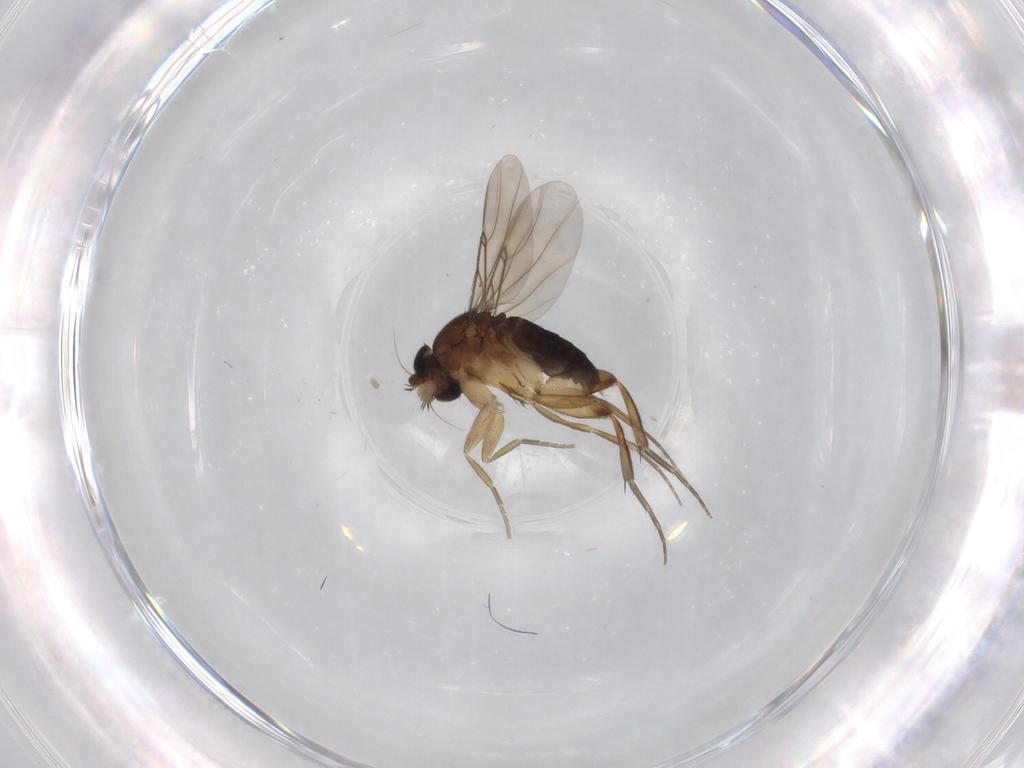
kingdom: Animalia
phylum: Arthropoda
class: Insecta
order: Diptera
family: Phoridae
